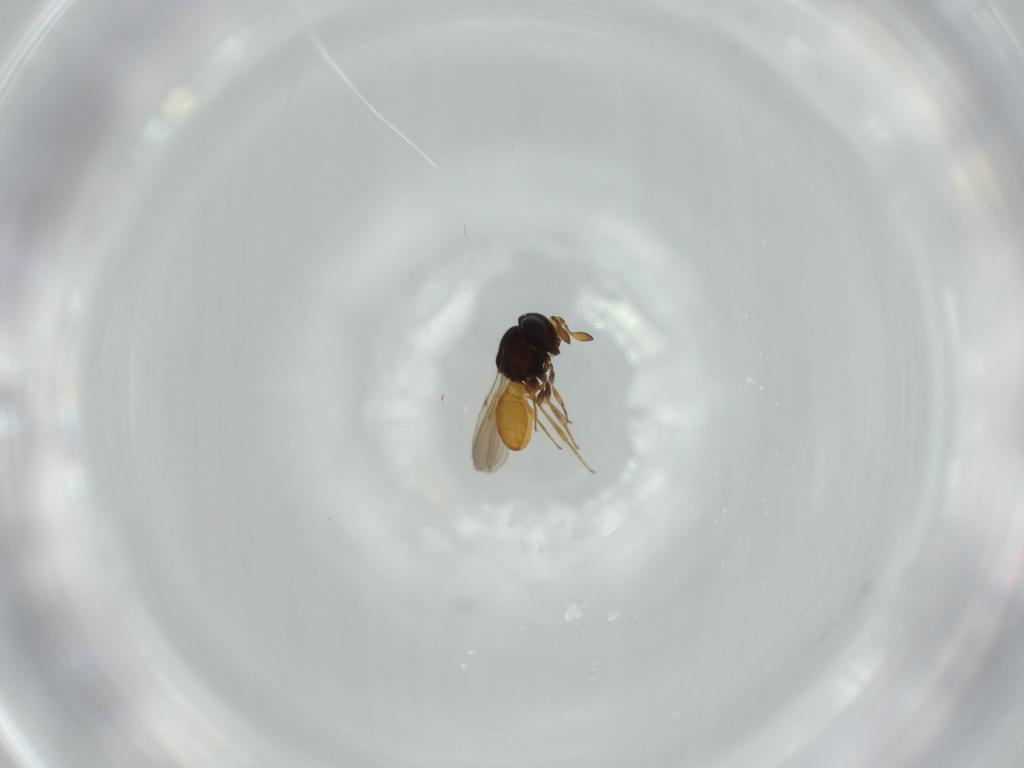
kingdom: Animalia
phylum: Arthropoda
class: Insecta
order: Hymenoptera
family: Scelionidae
